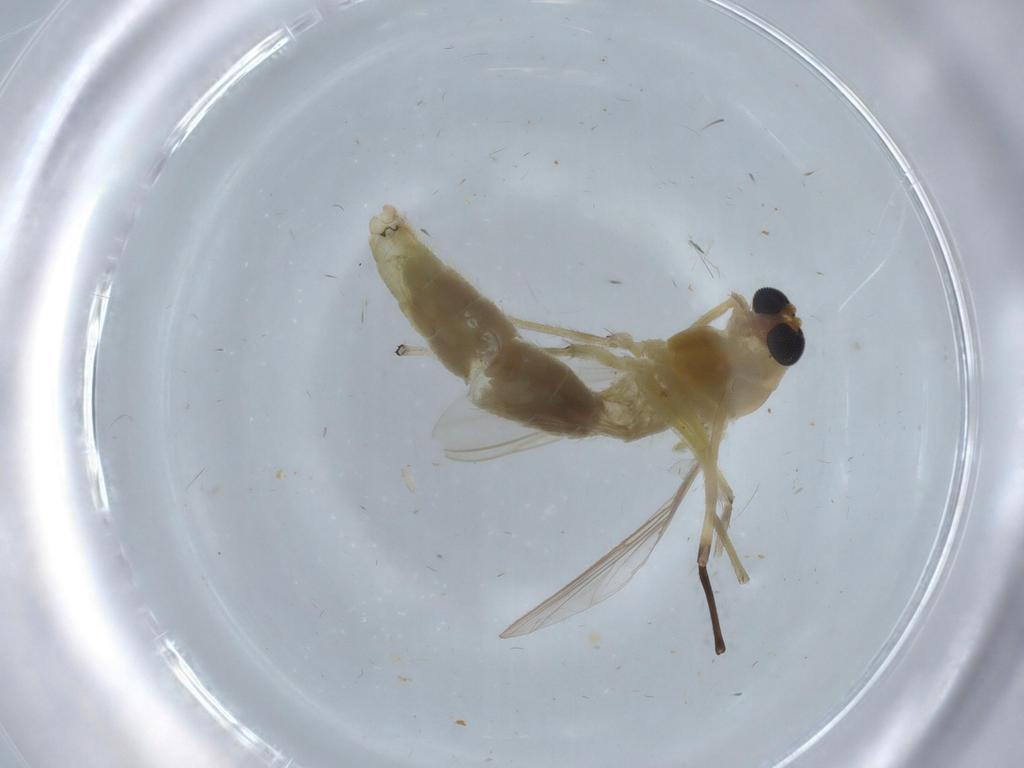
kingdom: Animalia
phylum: Arthropoda
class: Insecta
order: Diptera
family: Chironomidae
